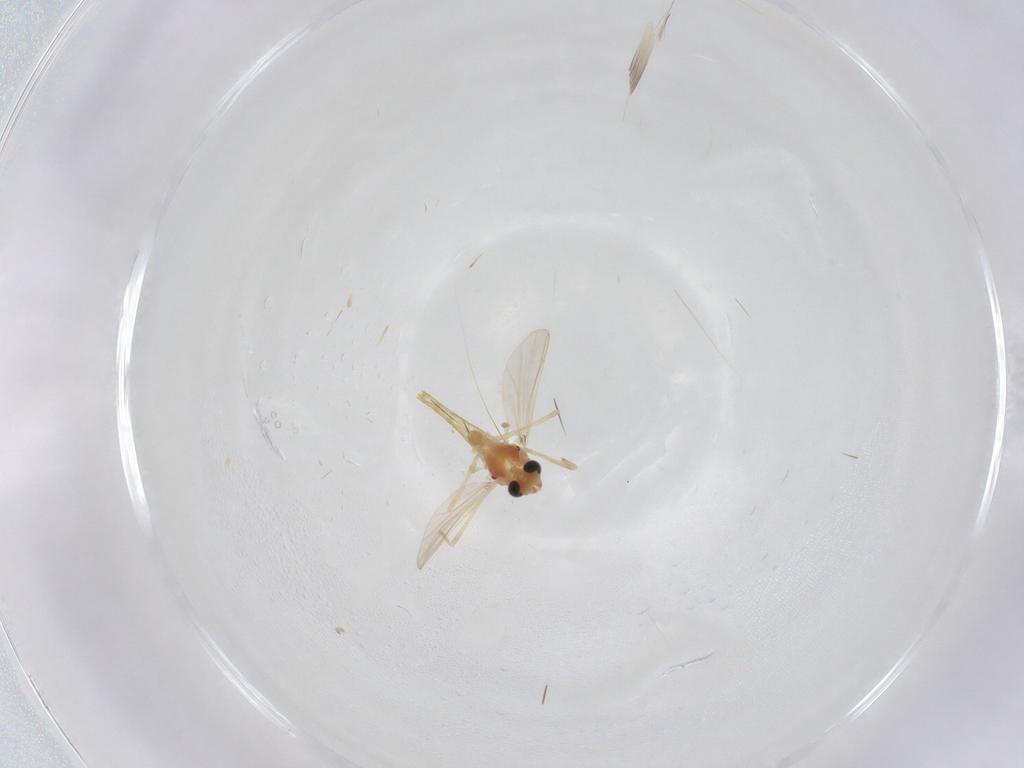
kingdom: Animalia
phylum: Arthropoda
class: Insecta
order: Diptera
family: Chironomidae
